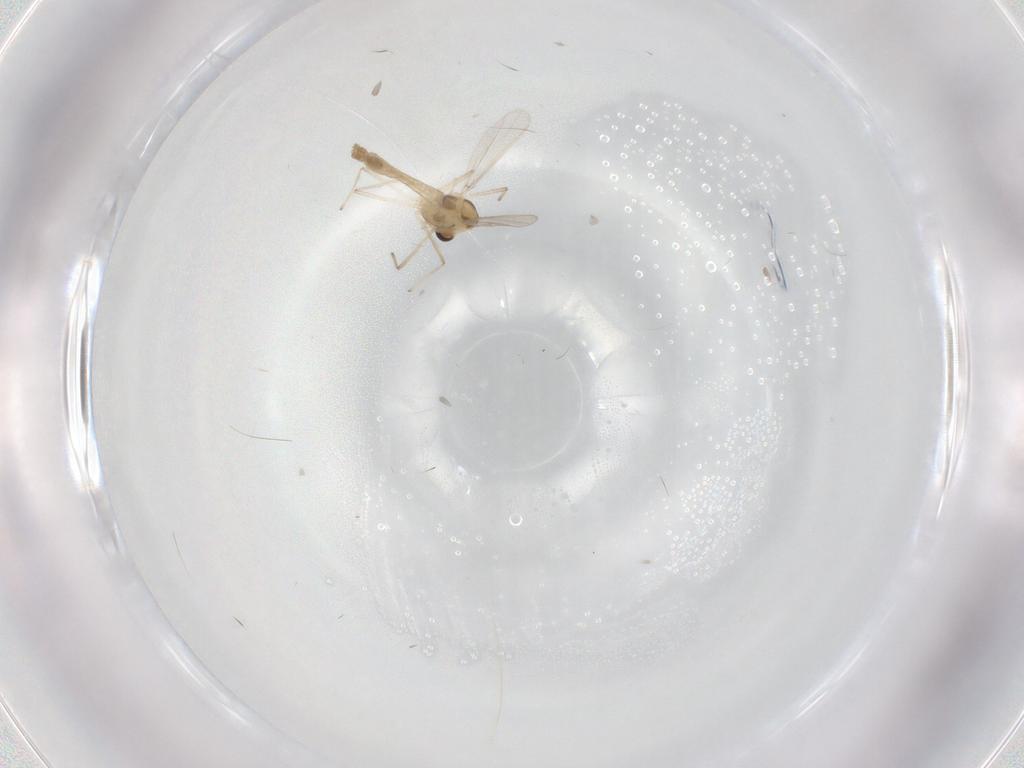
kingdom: Animalia
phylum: Arthropoda
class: Insecta
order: Diptera
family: Chironomidae
